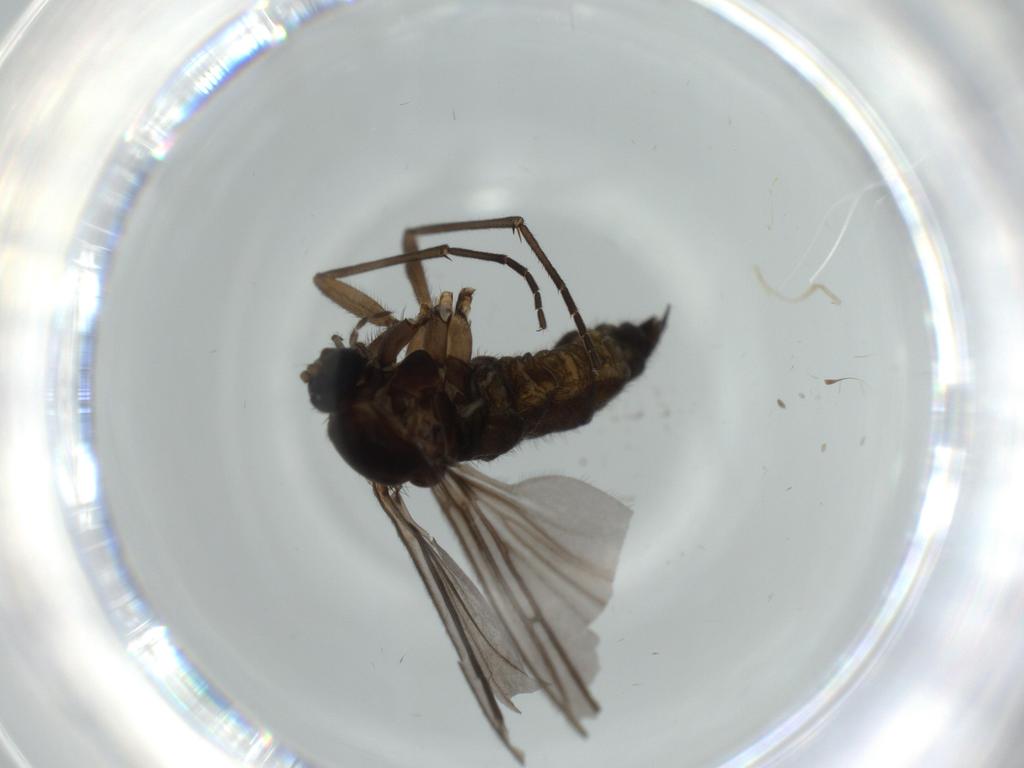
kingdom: Animalia
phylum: Arthropoda
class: Insecta
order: Diptera
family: Sciaridae
